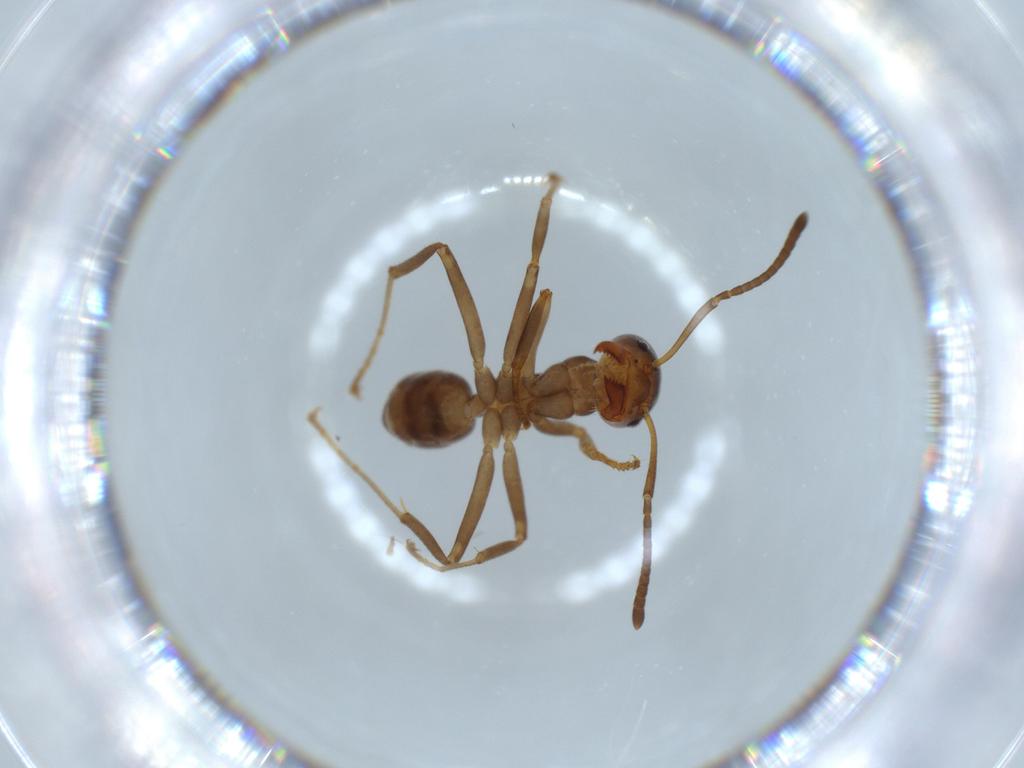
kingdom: Animalia
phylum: Arthropoda
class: Insecta
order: Hymenoptera
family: Formicidae
